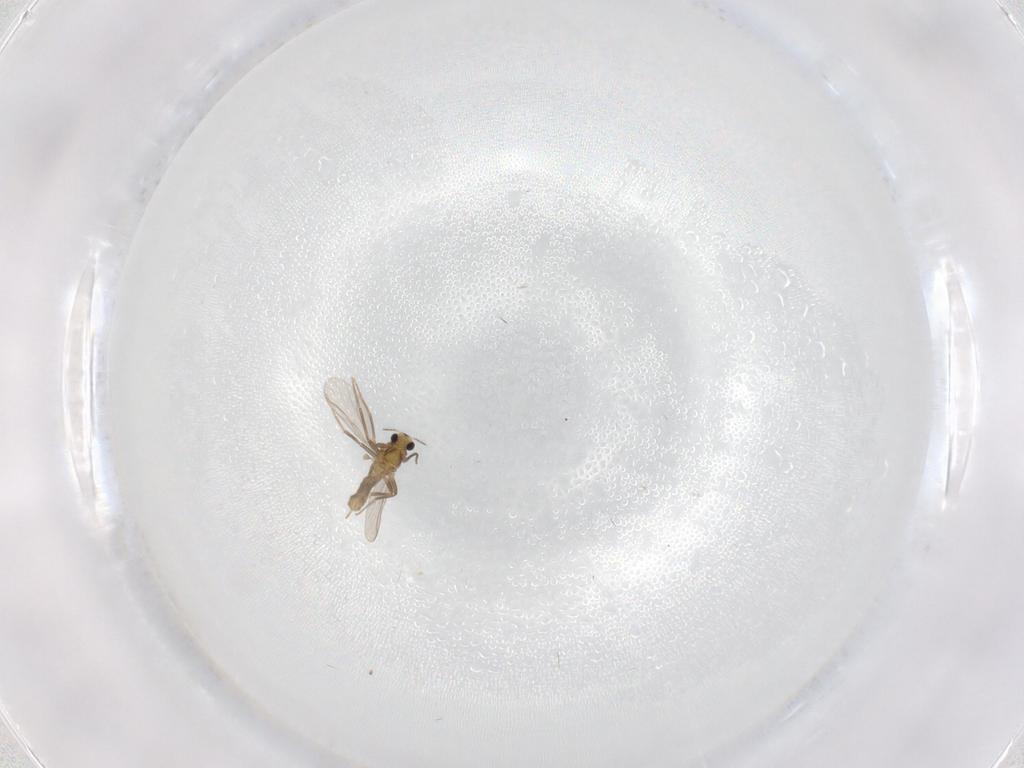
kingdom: Animalia
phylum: Arthropoda
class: Insecta
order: Diptera
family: Chironomidae
